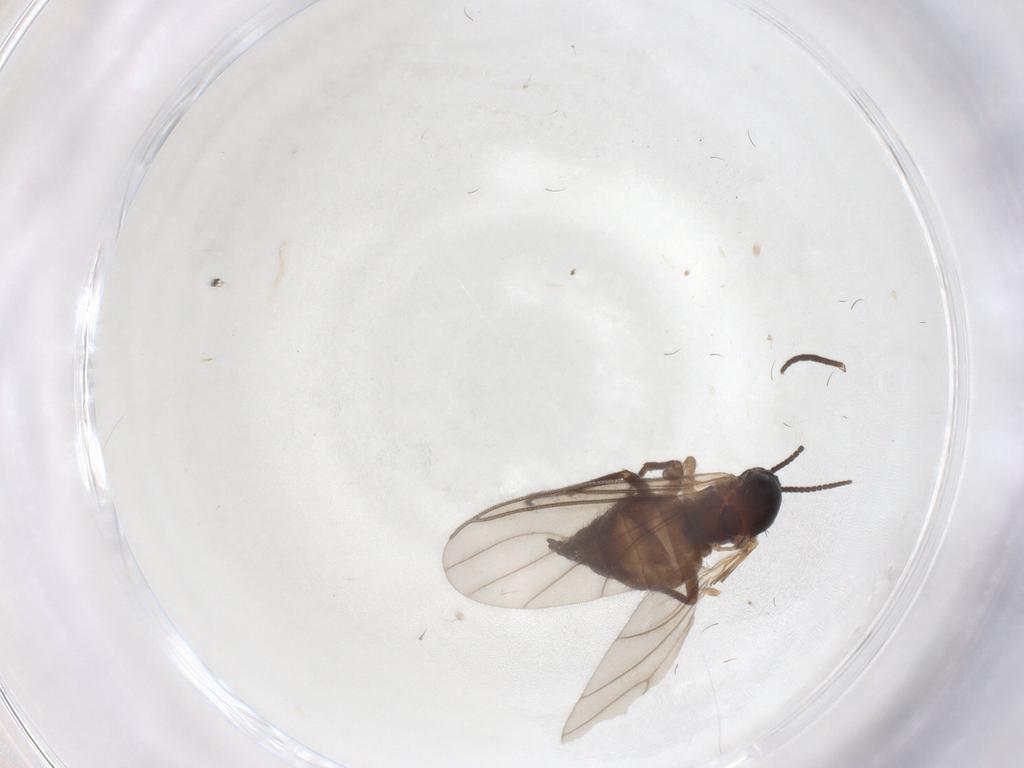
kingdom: Animalia
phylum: Arthropoda
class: Insecta
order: Diptera
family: Sciaridae
